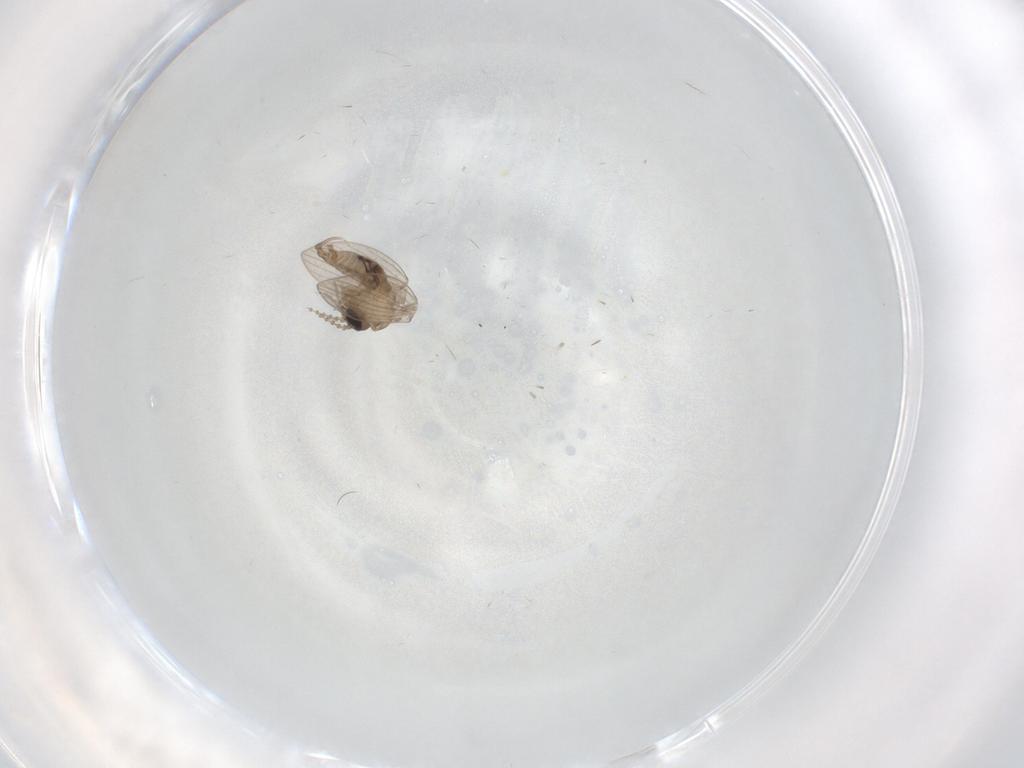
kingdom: Animalia
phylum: Arthropoda
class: Insecta
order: Diptera
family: Psychodidae
